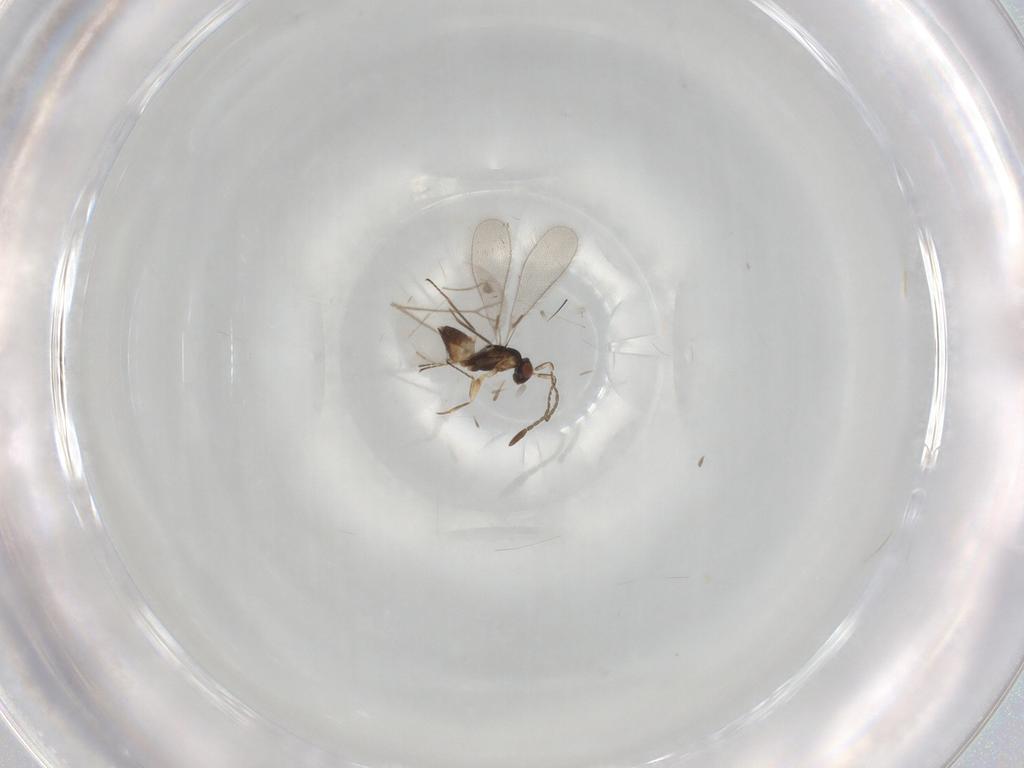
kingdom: Animalia
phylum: Arthropoda
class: Insecta
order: Hymenoptera
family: Mymaridae
